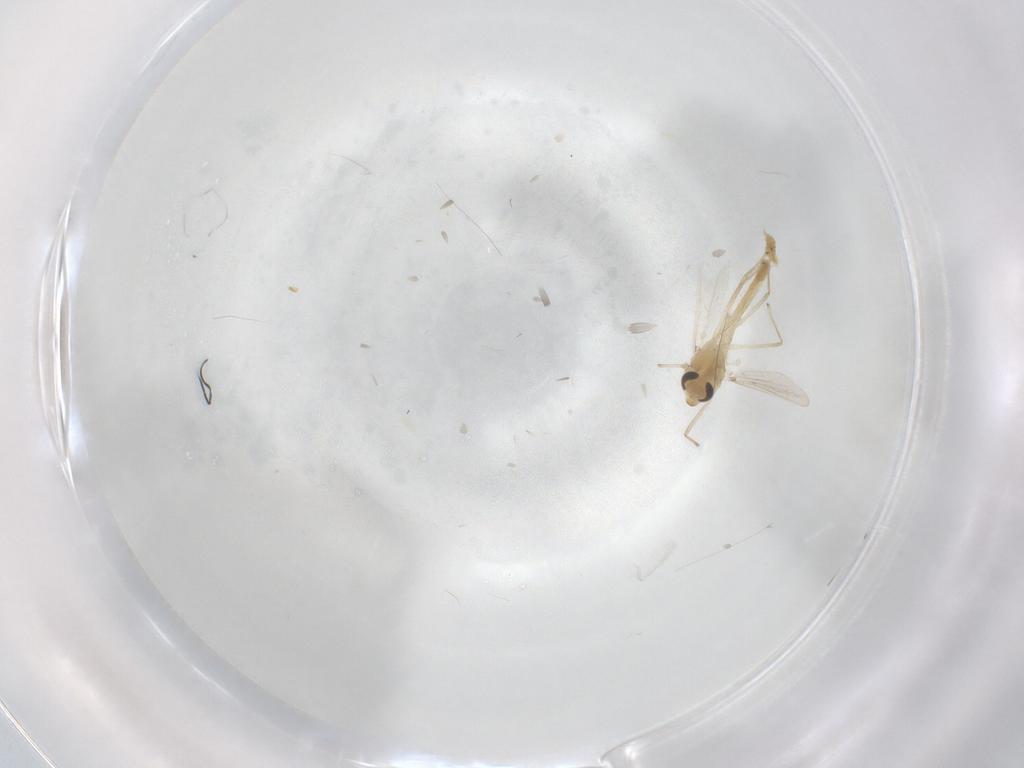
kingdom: Animalia
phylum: Arthropoda
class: Insecta
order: Diptera
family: Chironomidae
